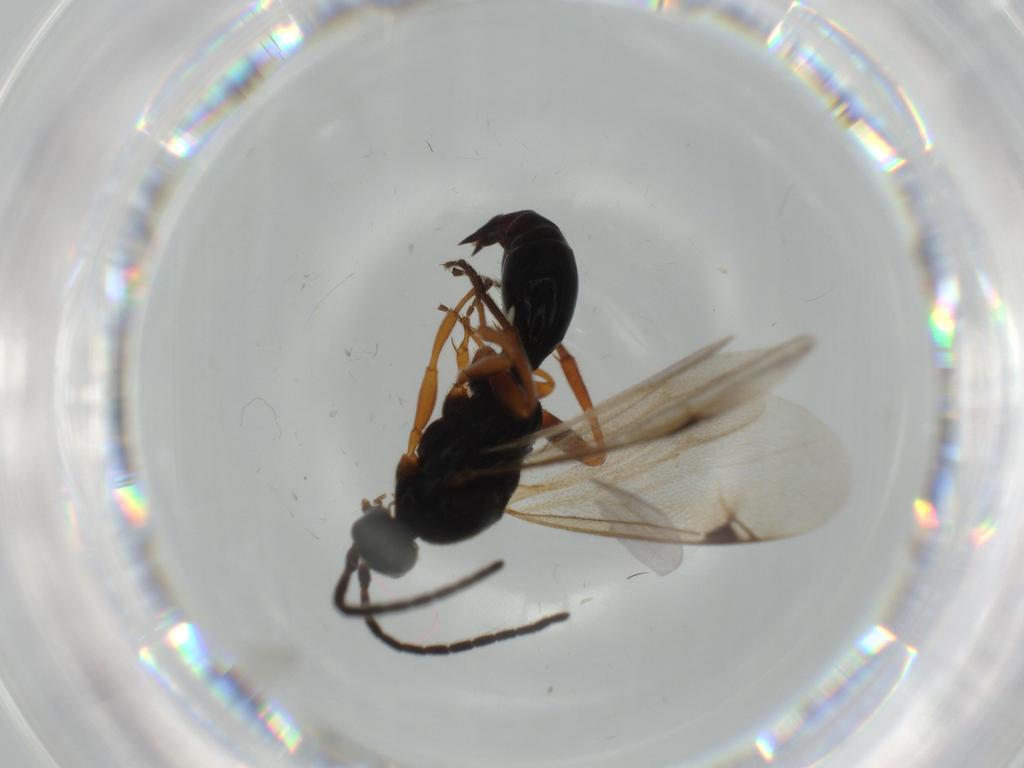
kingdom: Animalia
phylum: Arthropoda
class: Insecta
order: Hymenoptera
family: Ichneumonidae
